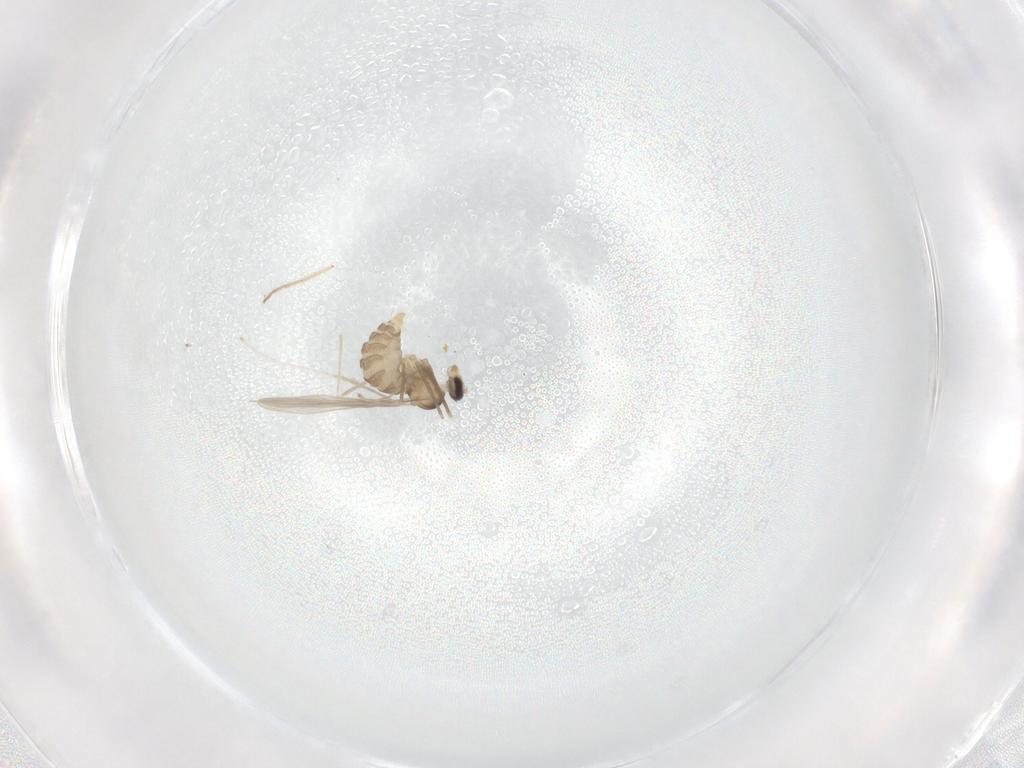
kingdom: Animalia
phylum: Arthropoda
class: Insecta
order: Diptera
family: Cecidomyiidae
